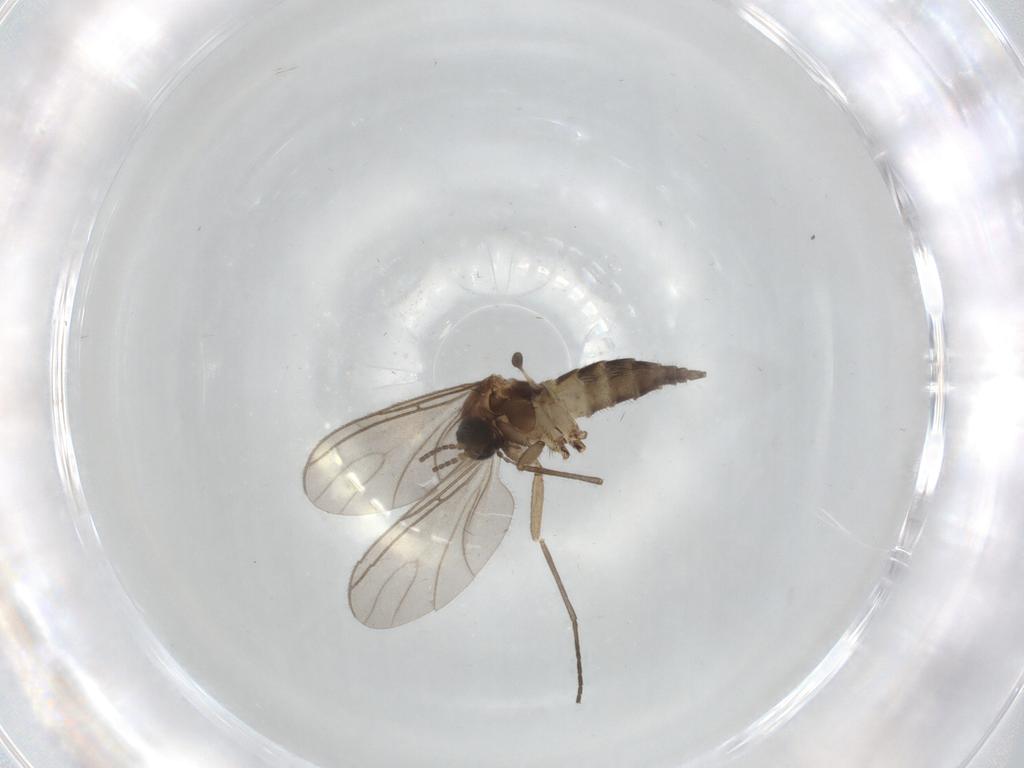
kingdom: Animalia
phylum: Arthropoda
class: Insecta
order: Diptera
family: Sciaridae
